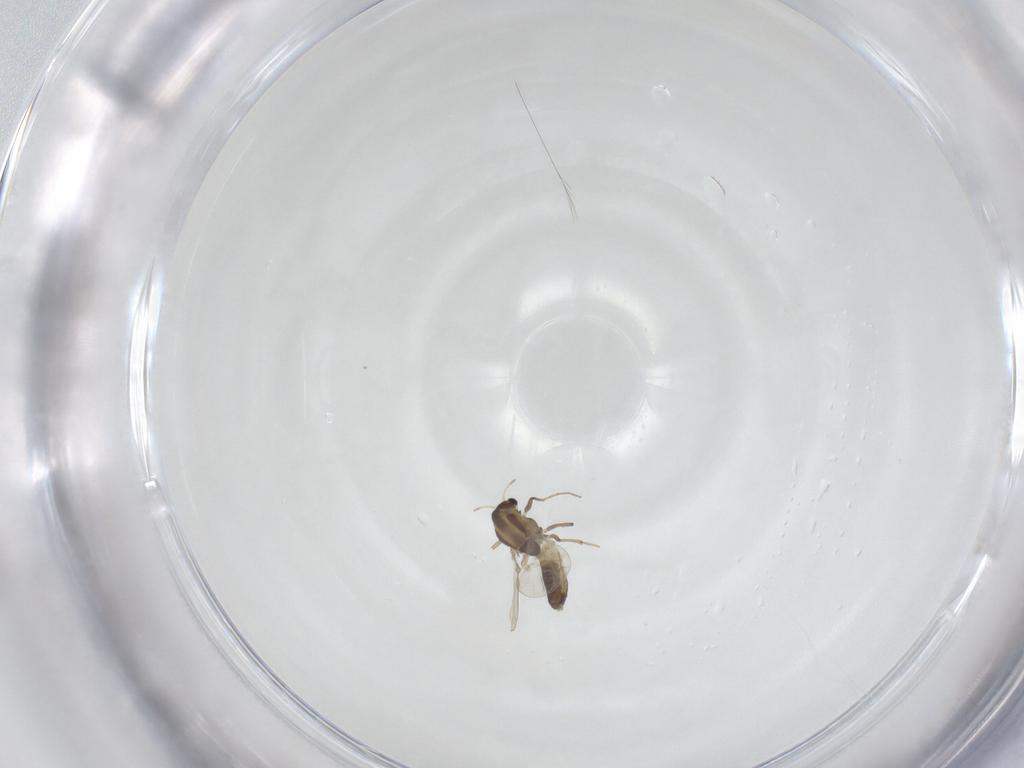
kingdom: Animalia
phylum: Arthropoda
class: Insecta
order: Diptera
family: Chironomidae
